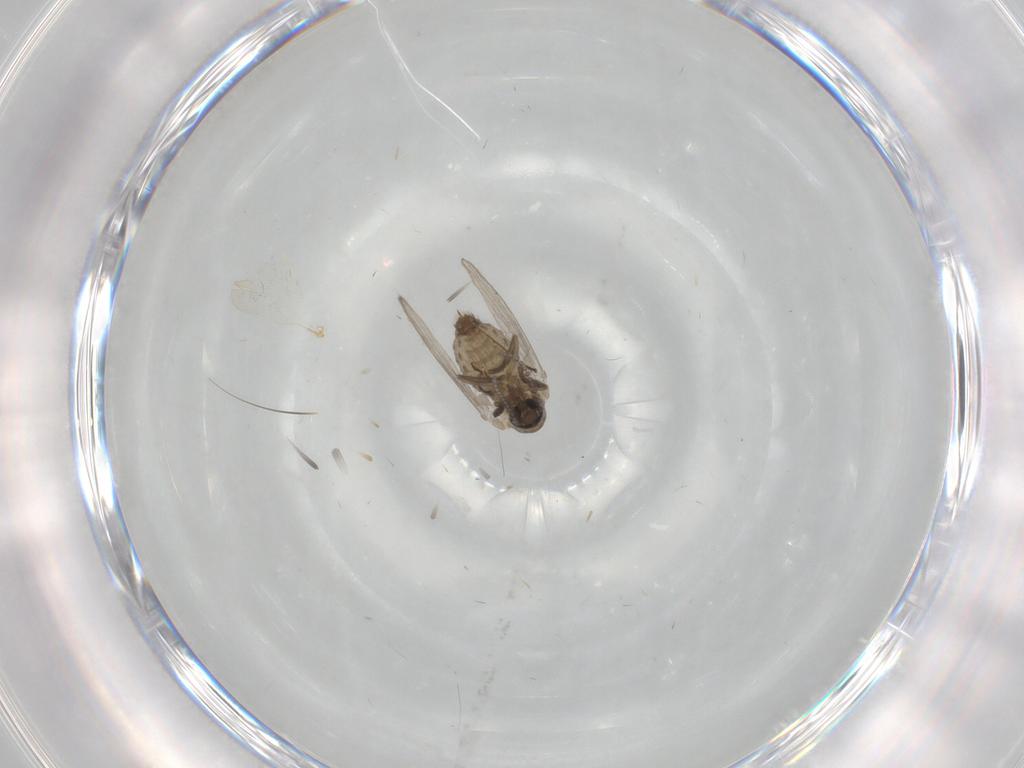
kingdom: Animalia
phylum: Arthropoda
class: Insecta
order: Diptera
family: Psychodidae
